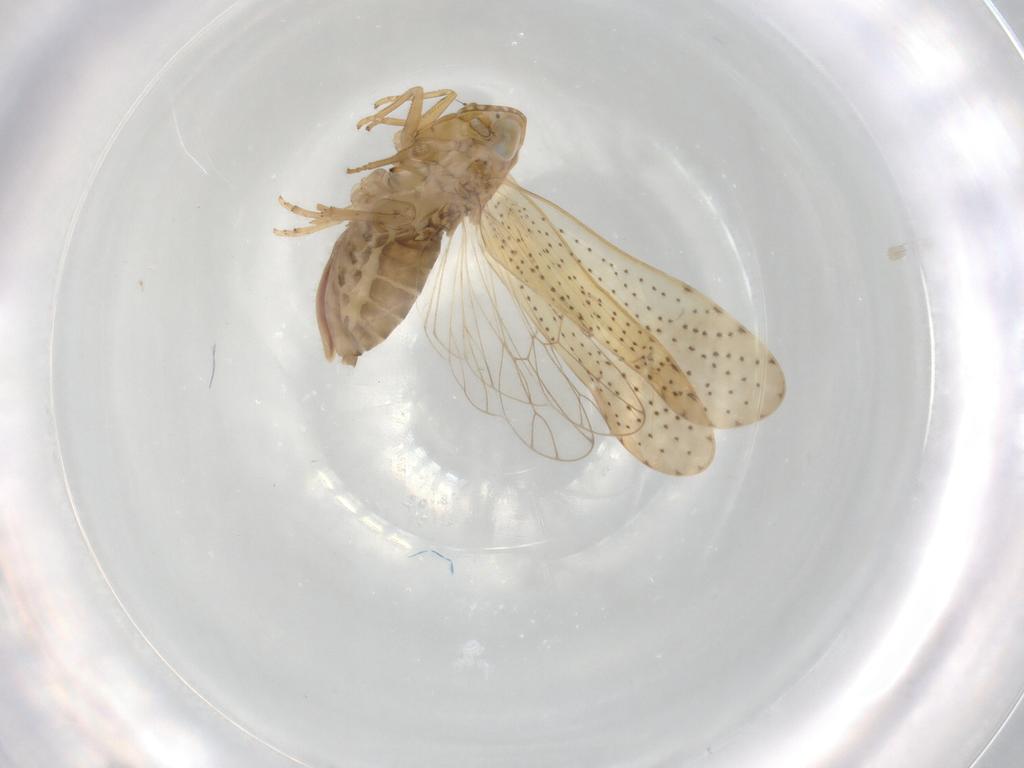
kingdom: Animalia
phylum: Arthropoda
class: Insecta
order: Hemiptera
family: Delphacidae
